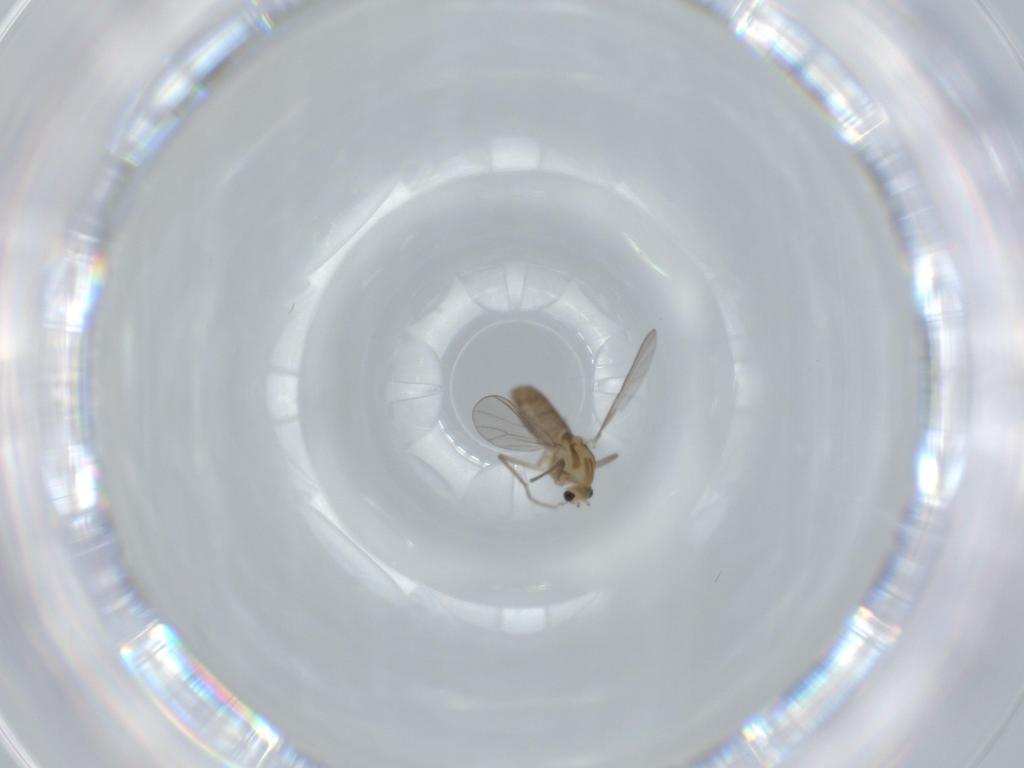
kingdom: Animalia
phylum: Arthropoda
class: Insecta
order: Diptera
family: Chironomidae
